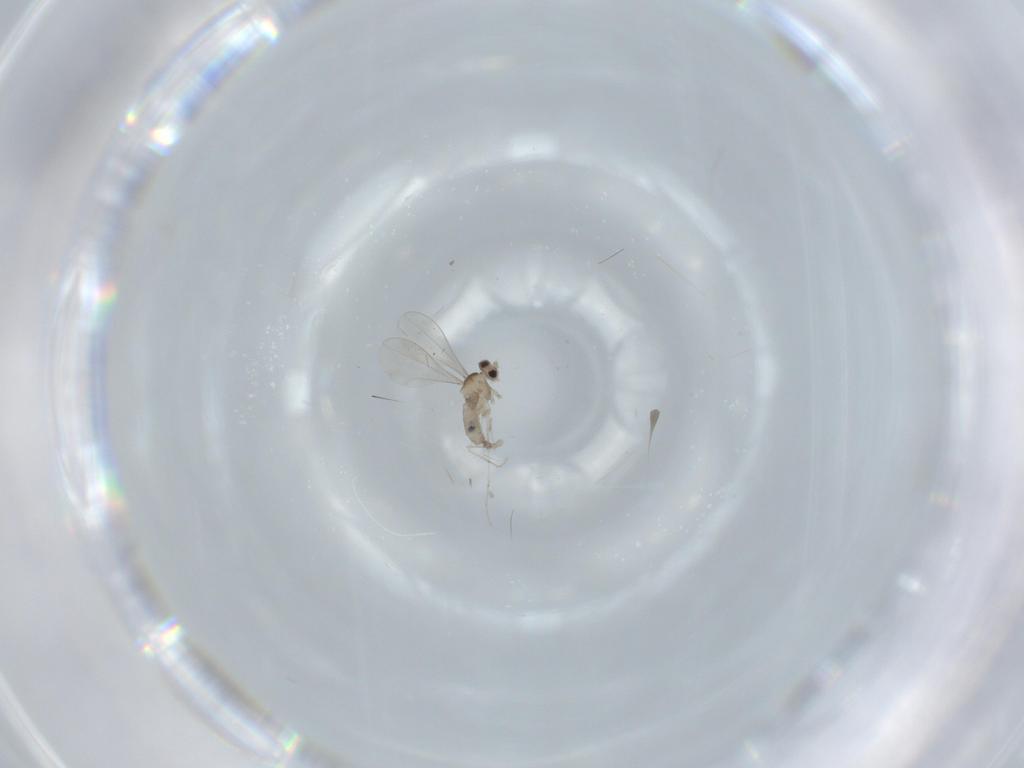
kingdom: Animalia
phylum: Arthropoda
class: Insecta
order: Diptera
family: Cecidomyiidae
